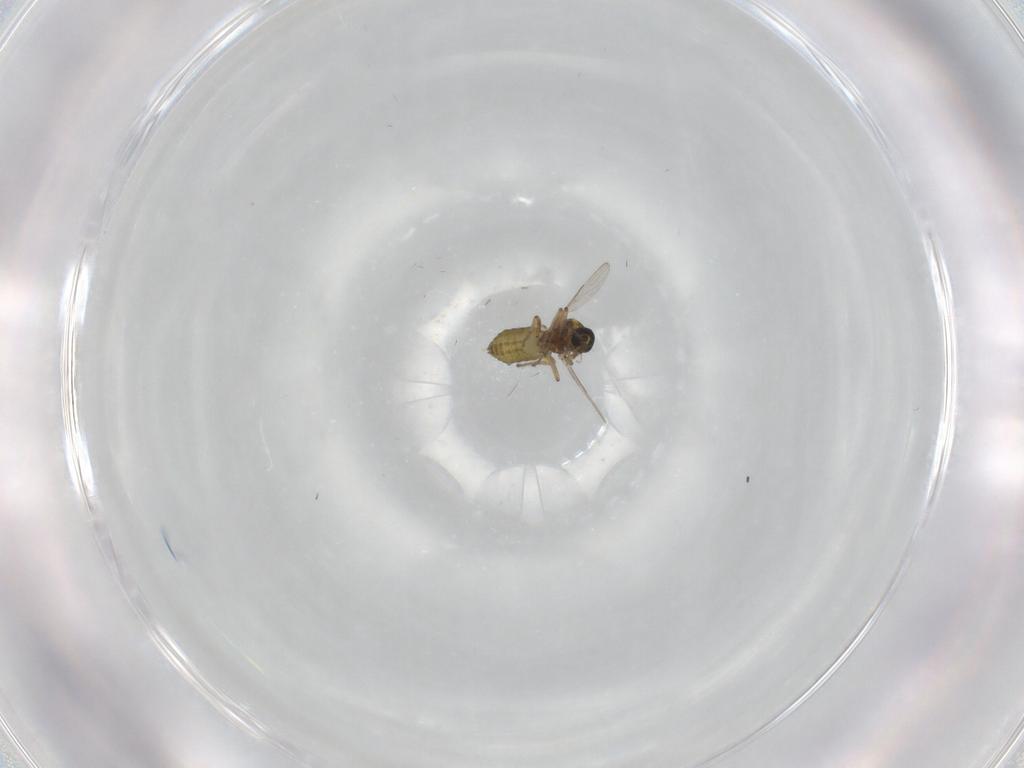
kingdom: Animalia
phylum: Arthropoda
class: Insecta
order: Diptera
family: Ceratopogonidae
